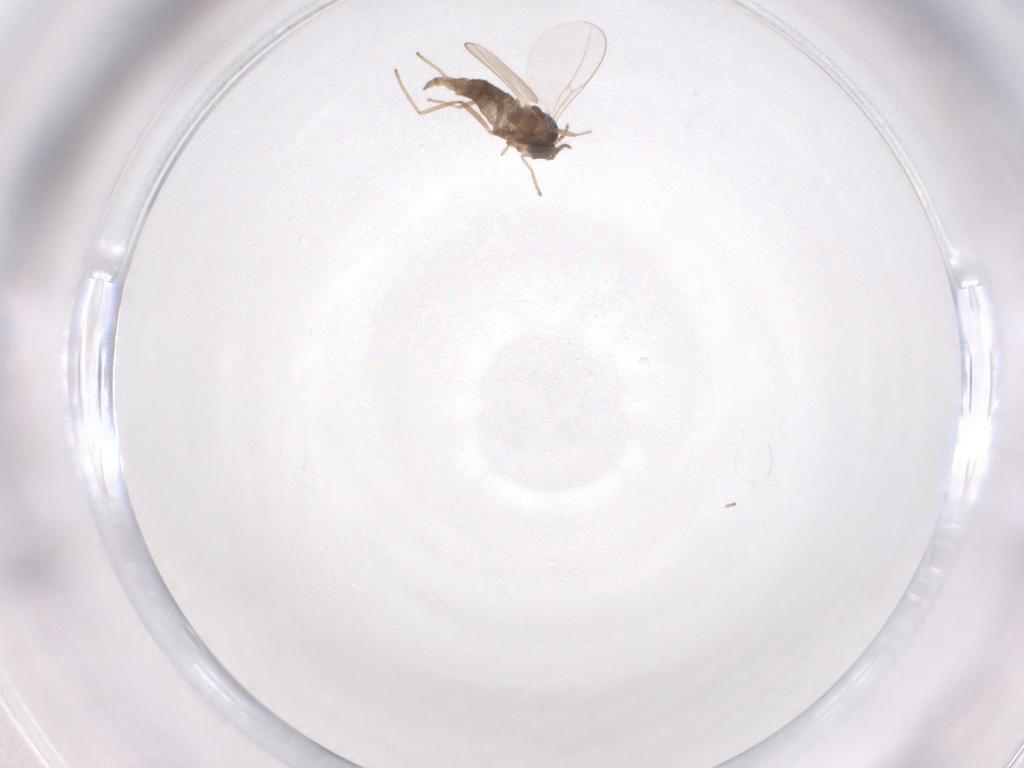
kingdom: Animalia
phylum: Arthropoda
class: Insecta
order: Diptera
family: Cecidomyiidae
